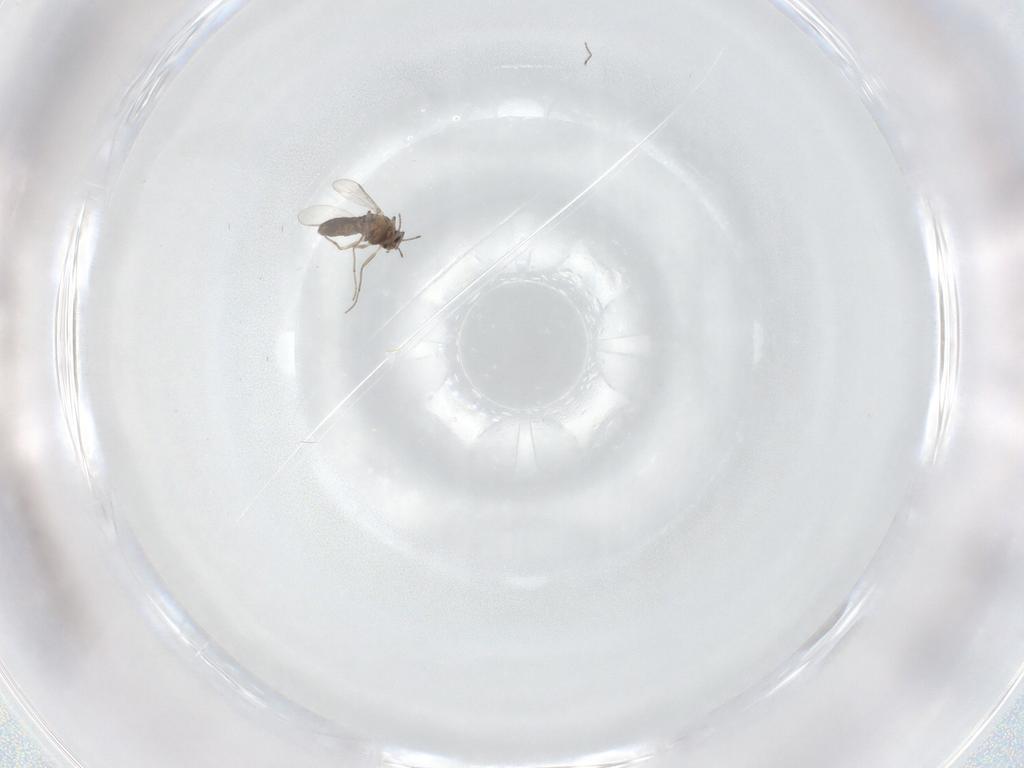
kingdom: Animalia
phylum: Arthropoda
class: Insecta
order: Diptera
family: Chironomidae
